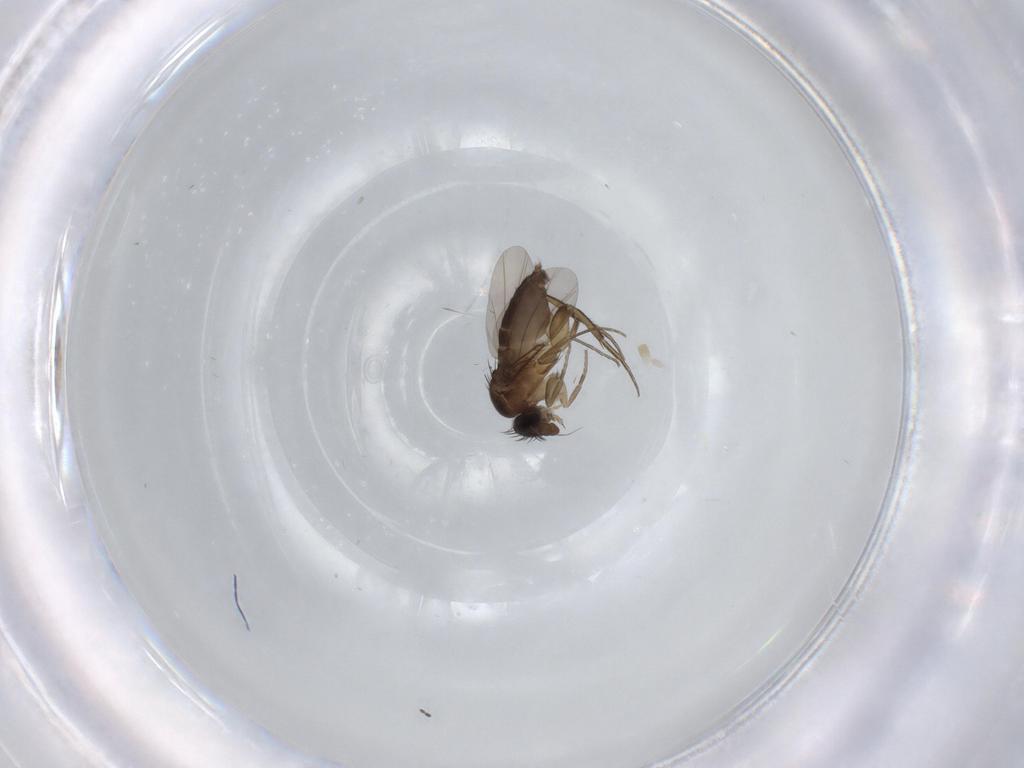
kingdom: Animalia
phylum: Arthropoda
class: Insecta
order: Diptera
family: Phoridae
